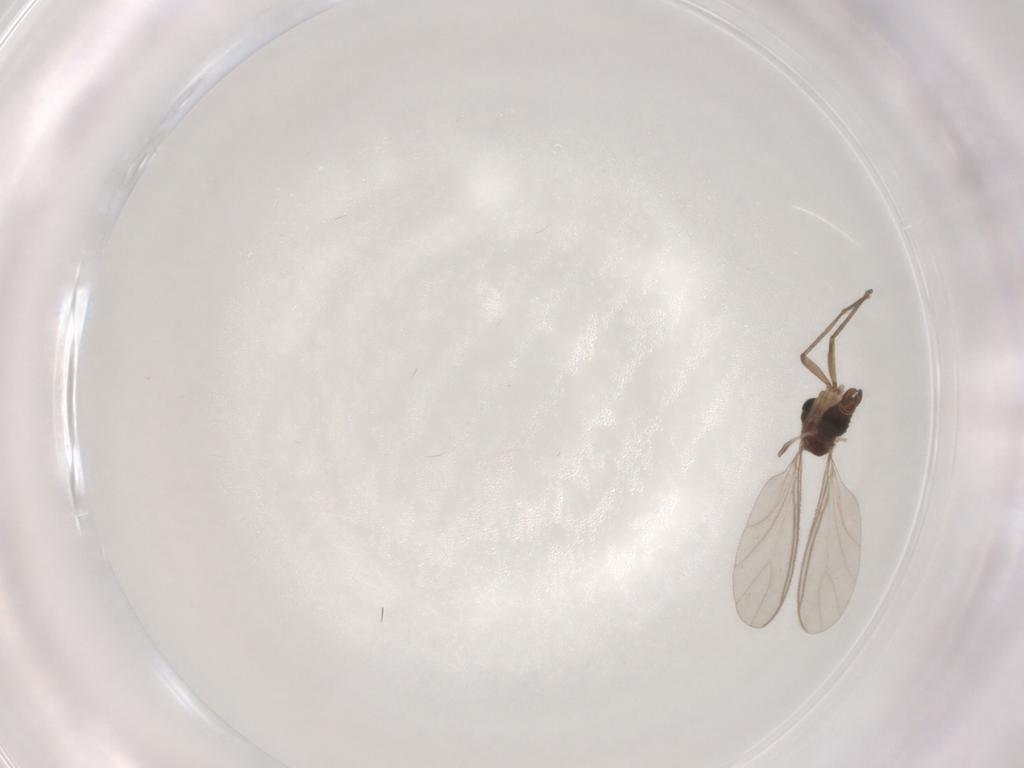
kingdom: Animalia
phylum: Arthropoda
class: Insecta
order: Diptera
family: Sciaridae
